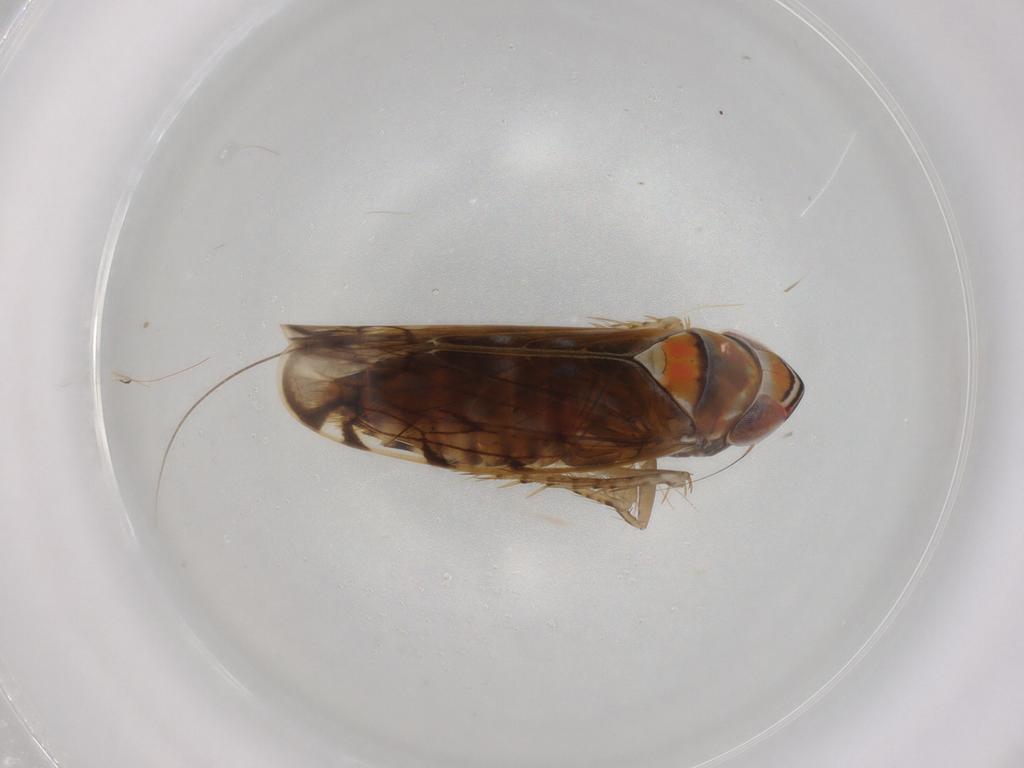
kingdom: Animalia
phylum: Arthropoda
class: Insecta
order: Hemiptera
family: Cicadellidae
